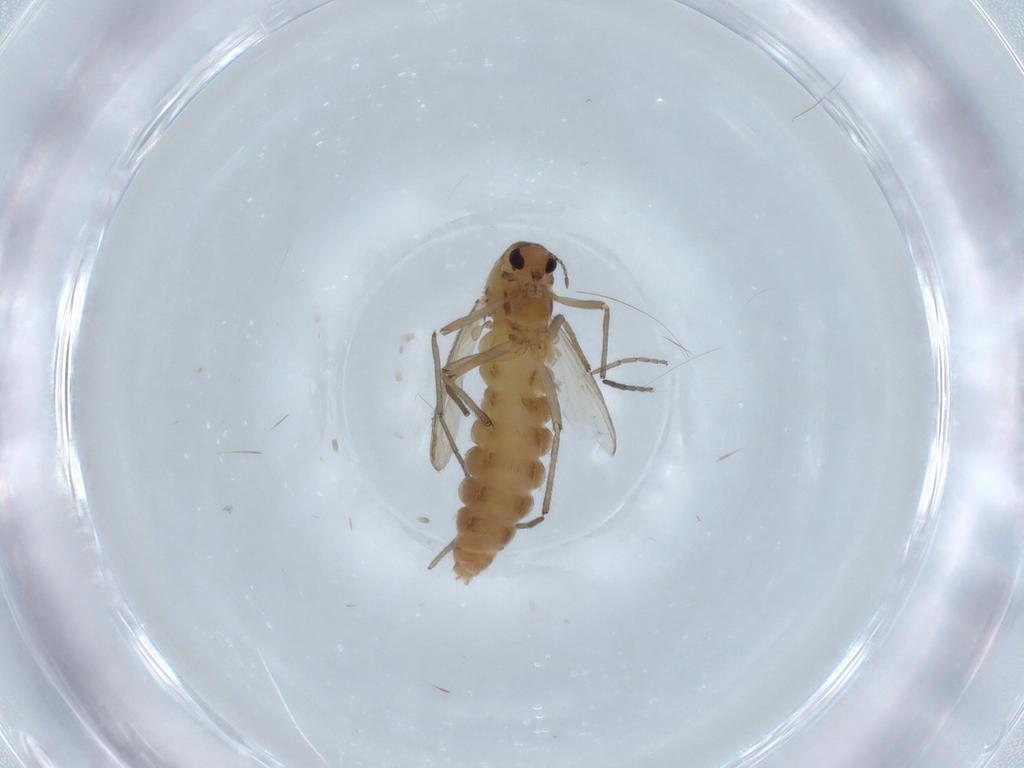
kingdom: Animalia
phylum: Arthropoda
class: Insecta
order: Diptera
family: Chironomidae
